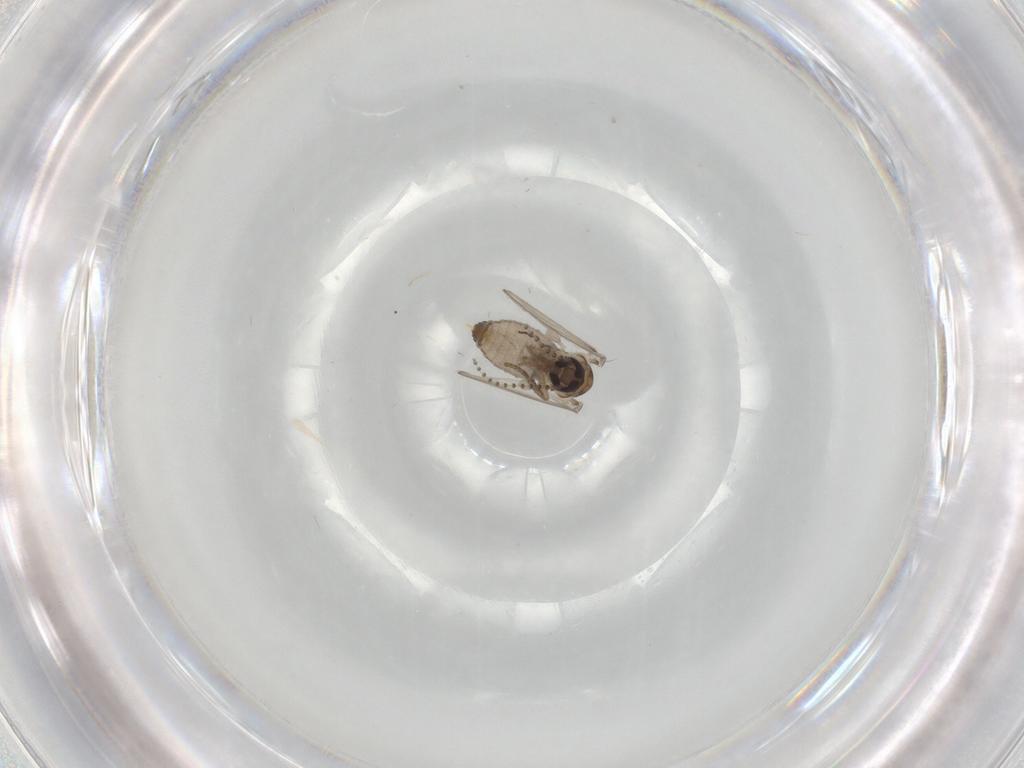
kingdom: Animalia
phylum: Arthropoda
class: Insecta
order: Diptera
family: Psychodidae
